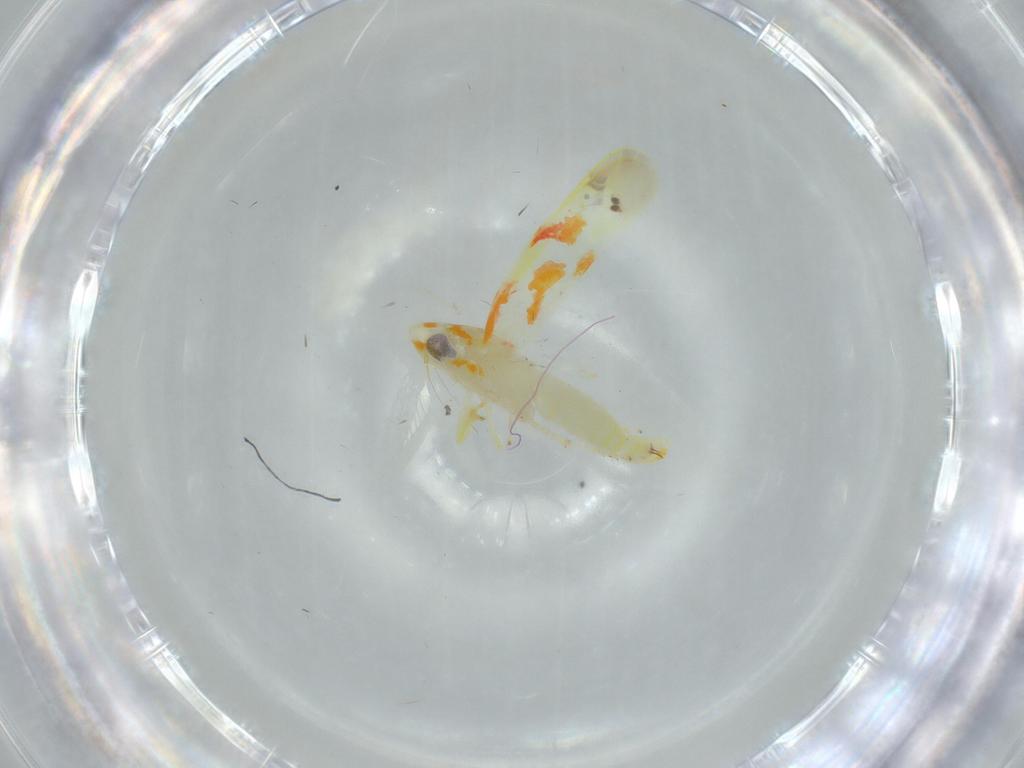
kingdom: Animalia
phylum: Arthropoda
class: Insecta
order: Hemiptera
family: Cicadellidae
